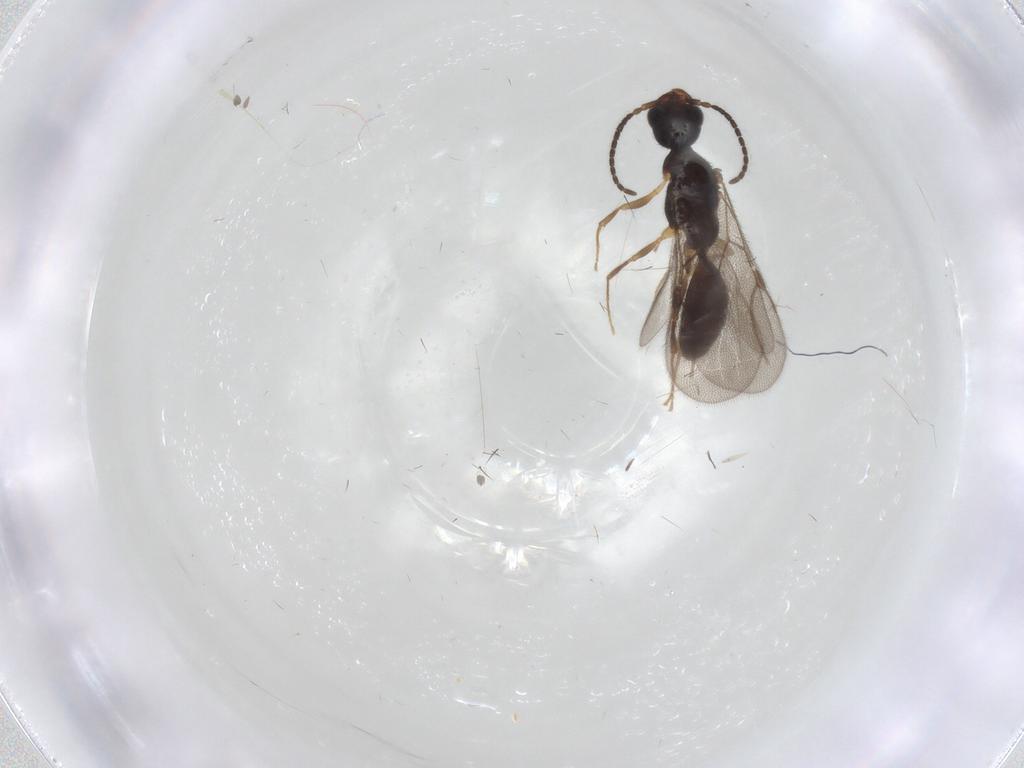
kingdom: Animalia
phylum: Arthropoda
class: Insecta
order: Hymenoptera
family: Bethylidae
